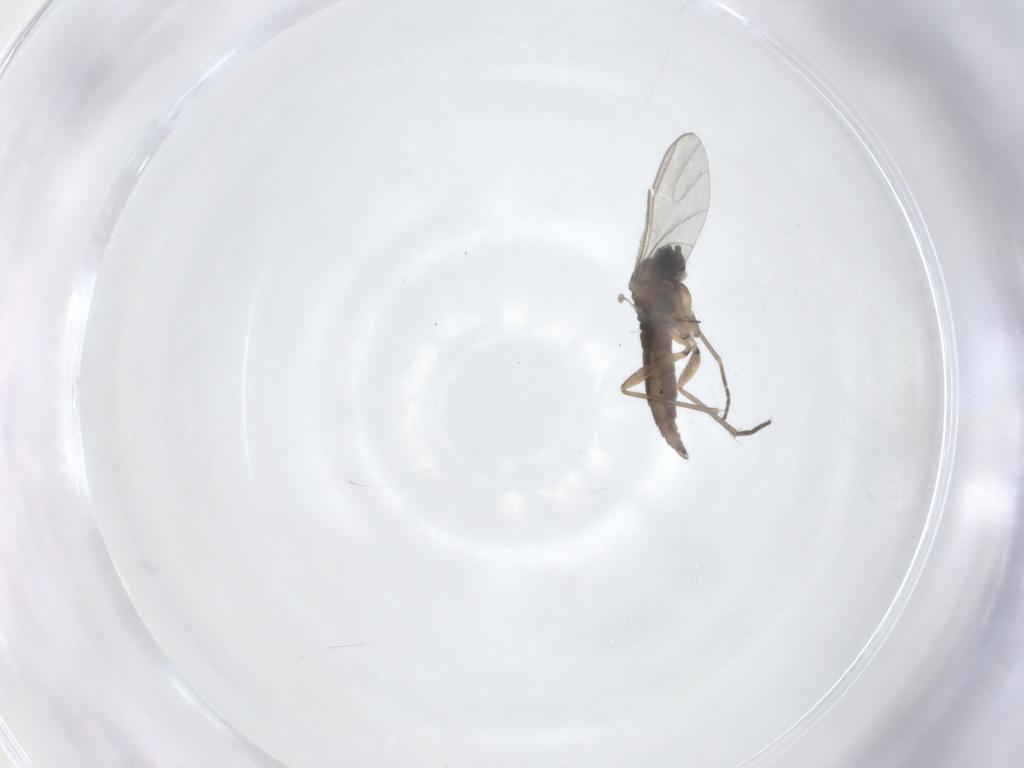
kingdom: Animalia
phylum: Arthropoda
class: Insecta
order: Diptera
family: Sciaridae
